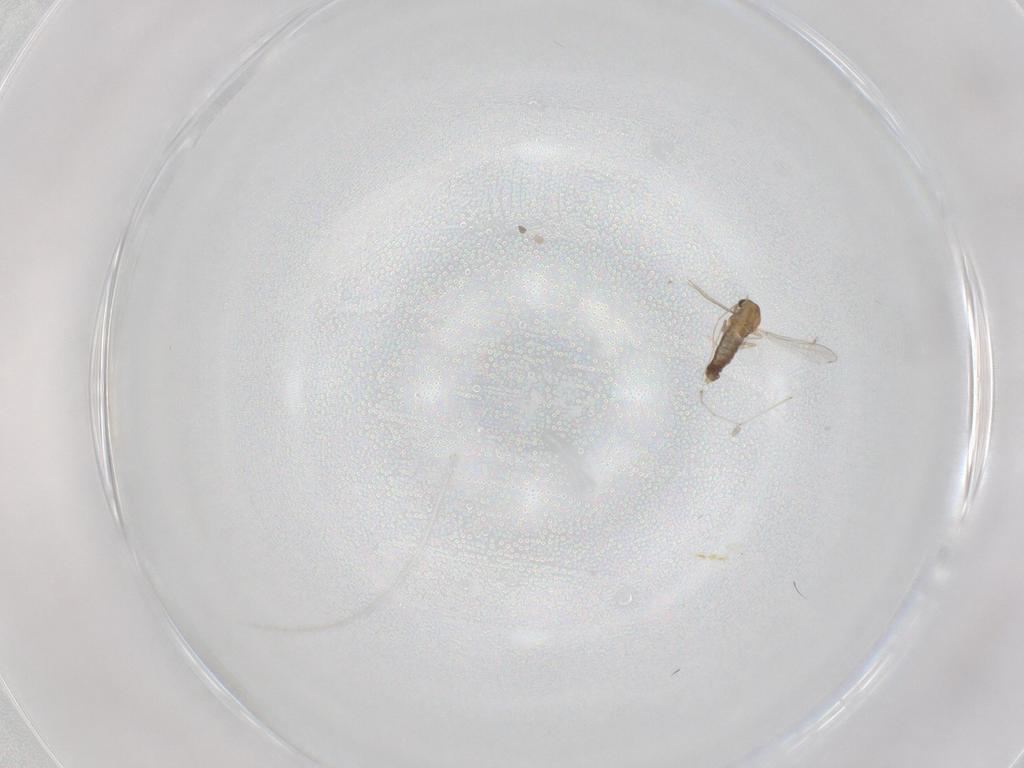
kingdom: Animalia
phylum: Arthropoda
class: Insecta
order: Diptera
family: Chironomidae
